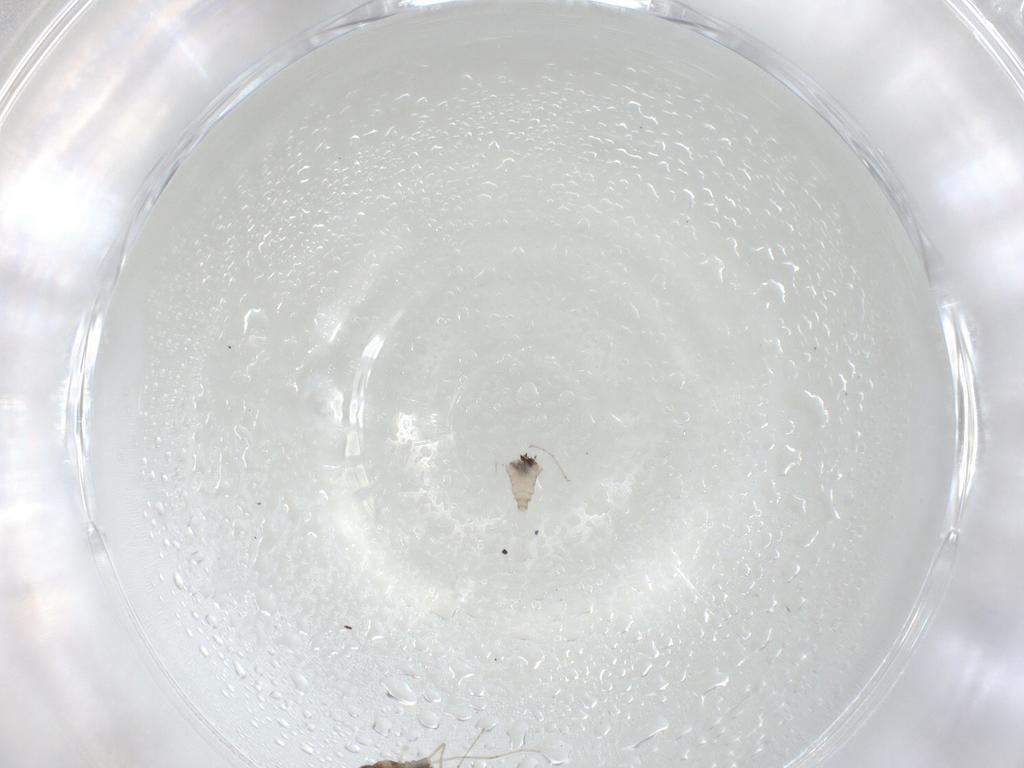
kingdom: Animalia
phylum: Arthropoda
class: Insecta
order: Diptera
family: Cecidomyiidae
